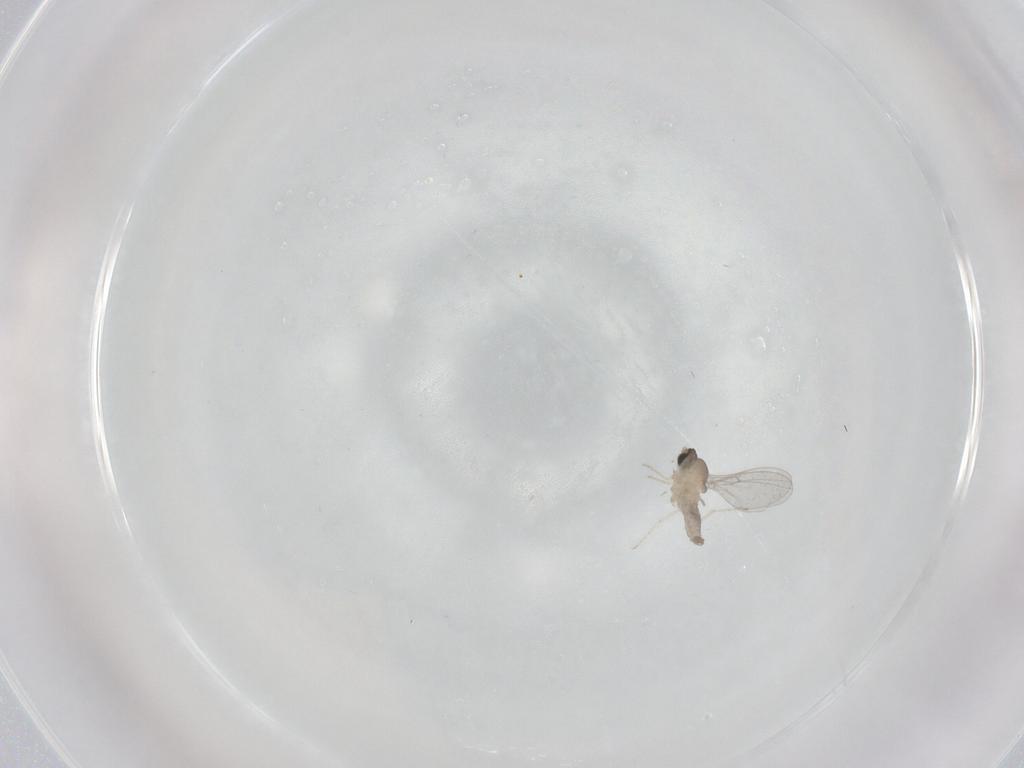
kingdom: Animalia
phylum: Arthropoda
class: Insecta
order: Diptera
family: Cecidomyiidae
